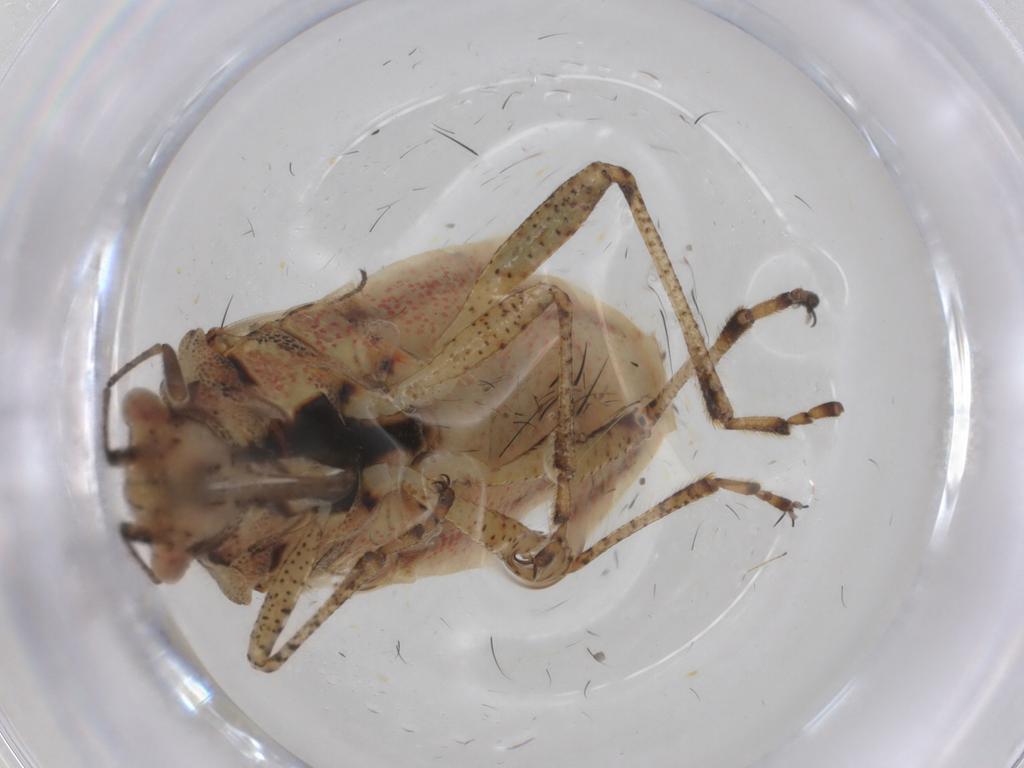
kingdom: Animalia
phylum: Arthropoda
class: Insecta
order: Hemiptera
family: Rhopalidae
